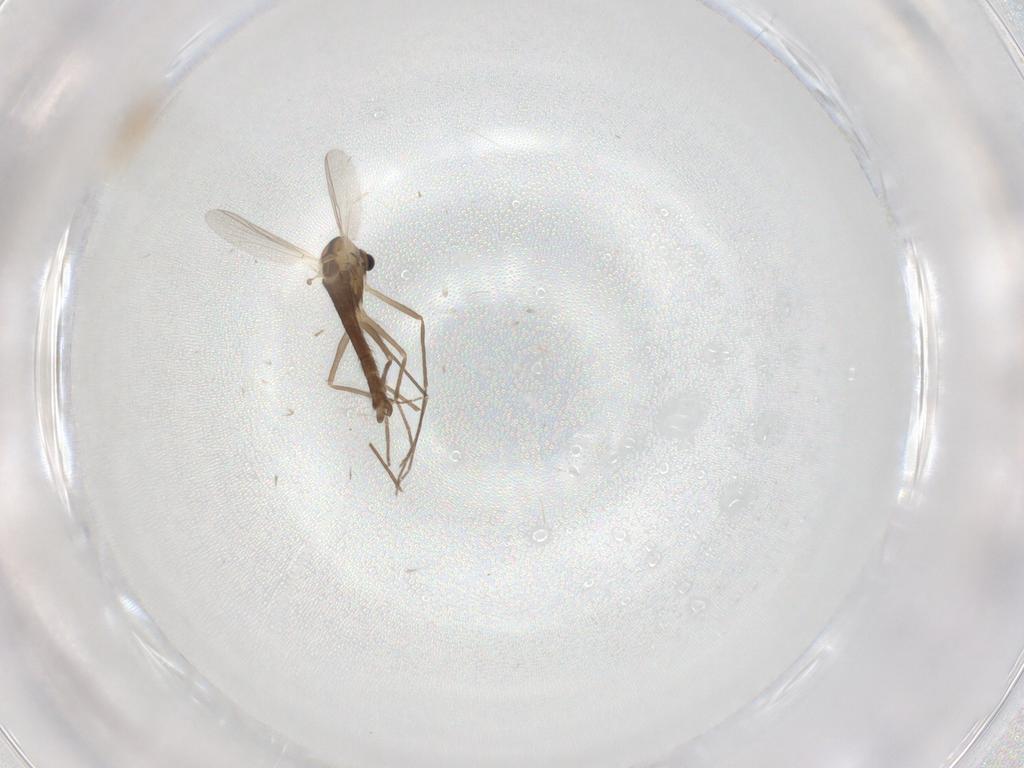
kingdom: Animalia
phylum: Arthropoda
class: Insecta
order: Diptera
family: Chironomidae
